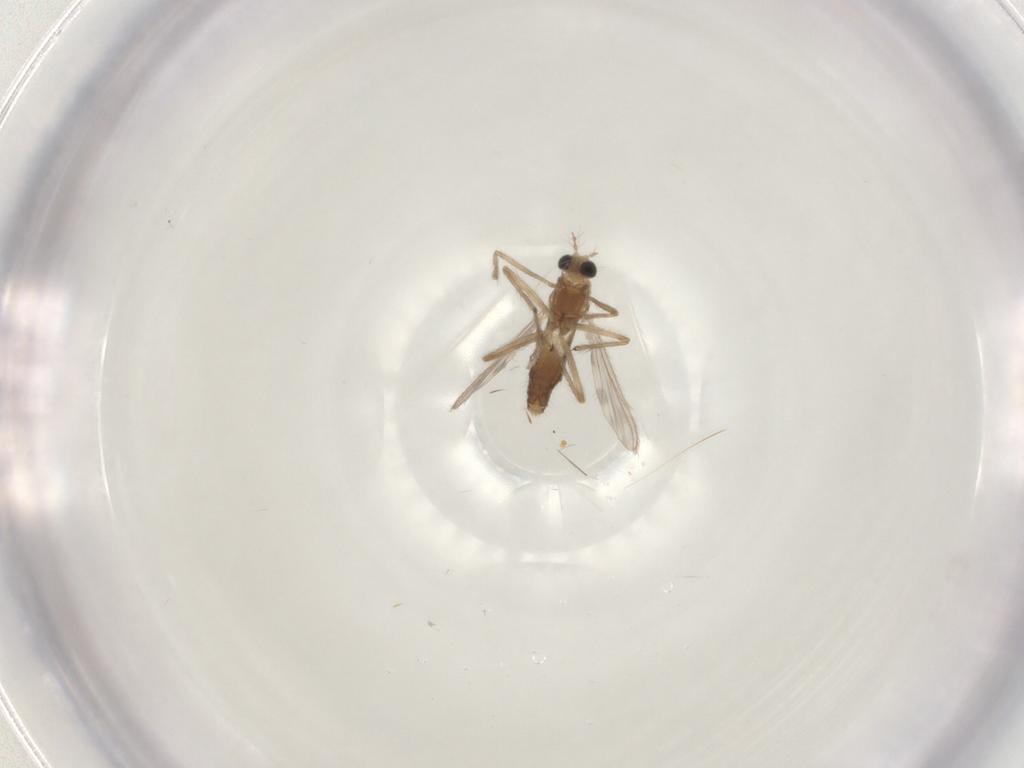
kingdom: Animalia
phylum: Arthropoda
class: Insecta
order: Diptera
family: Chironomidae
